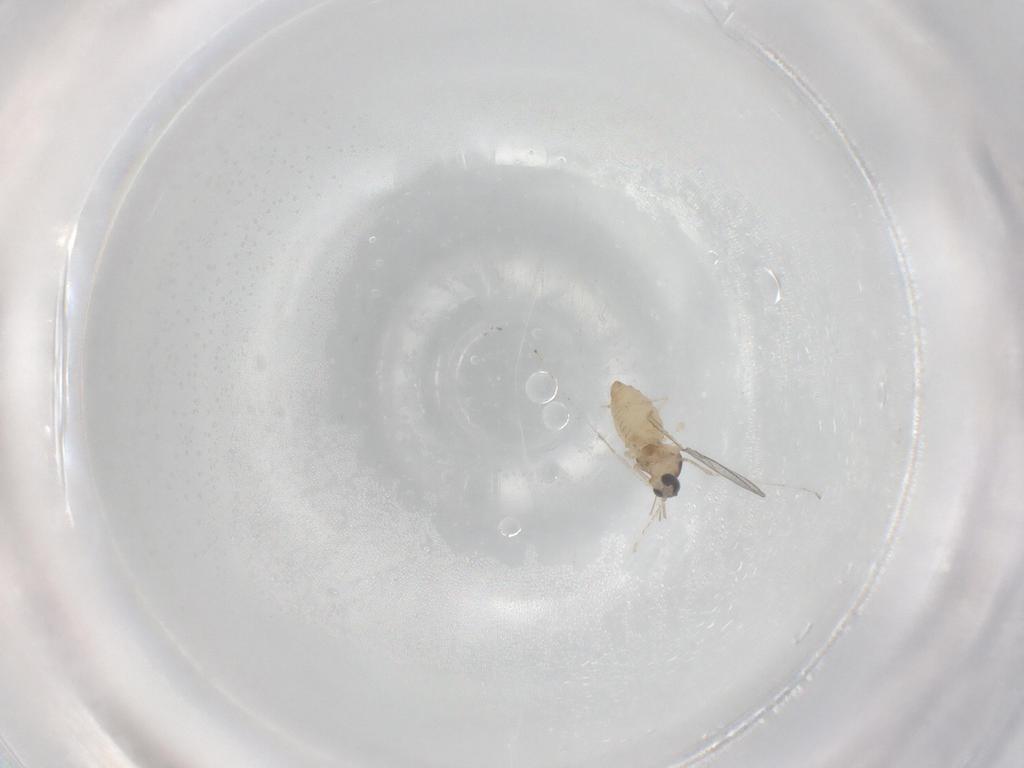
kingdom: Animalia
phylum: Arthropoda
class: Insecta
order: Diptera
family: Cecidomyiidae
